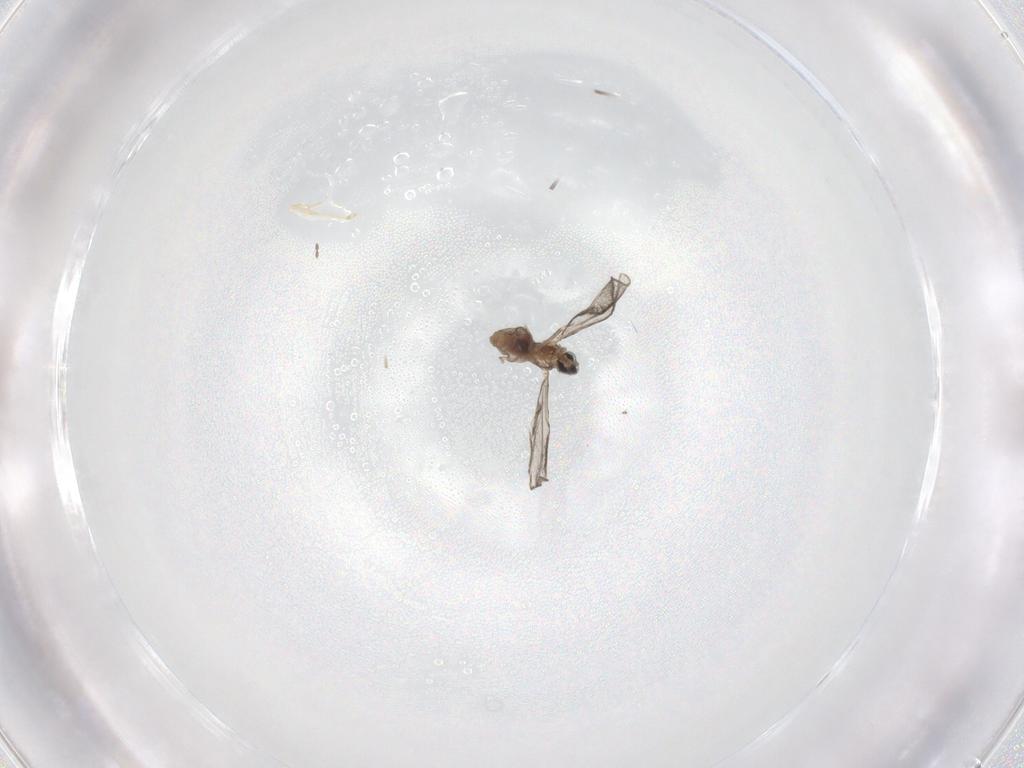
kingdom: Animalia
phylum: Arthropoda
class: Insecta
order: Diptera
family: Cecidomyiidae
